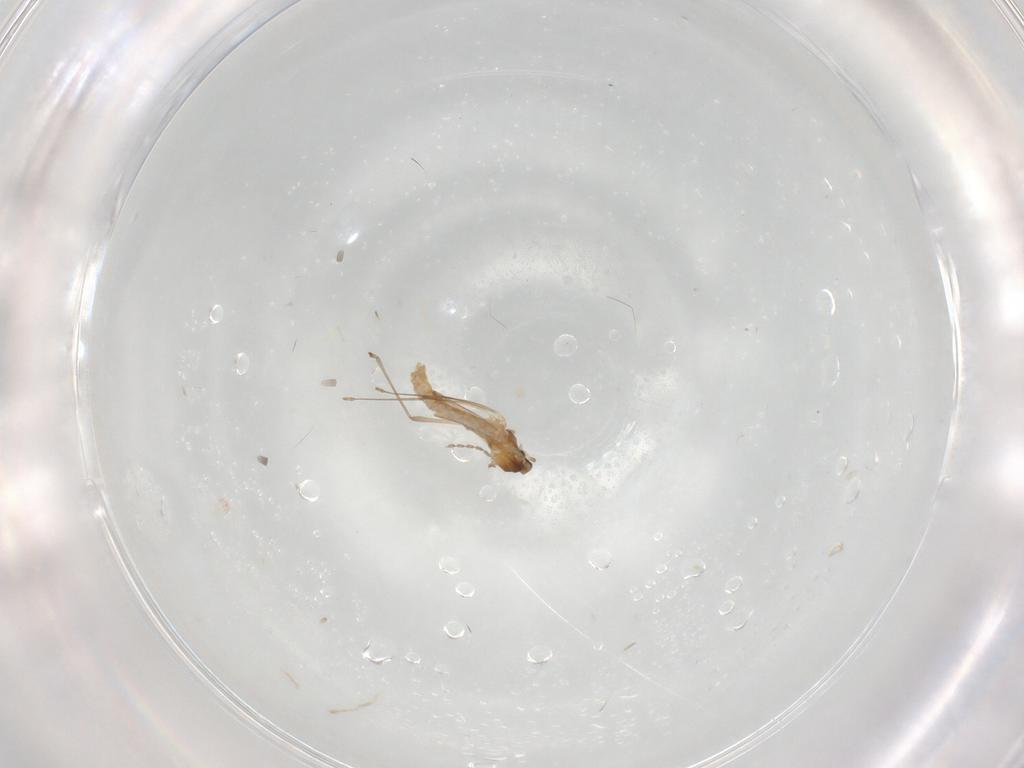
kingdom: Animalia
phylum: Arthropoda
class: Insecta
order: Diptera
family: Cecidomyiidae
